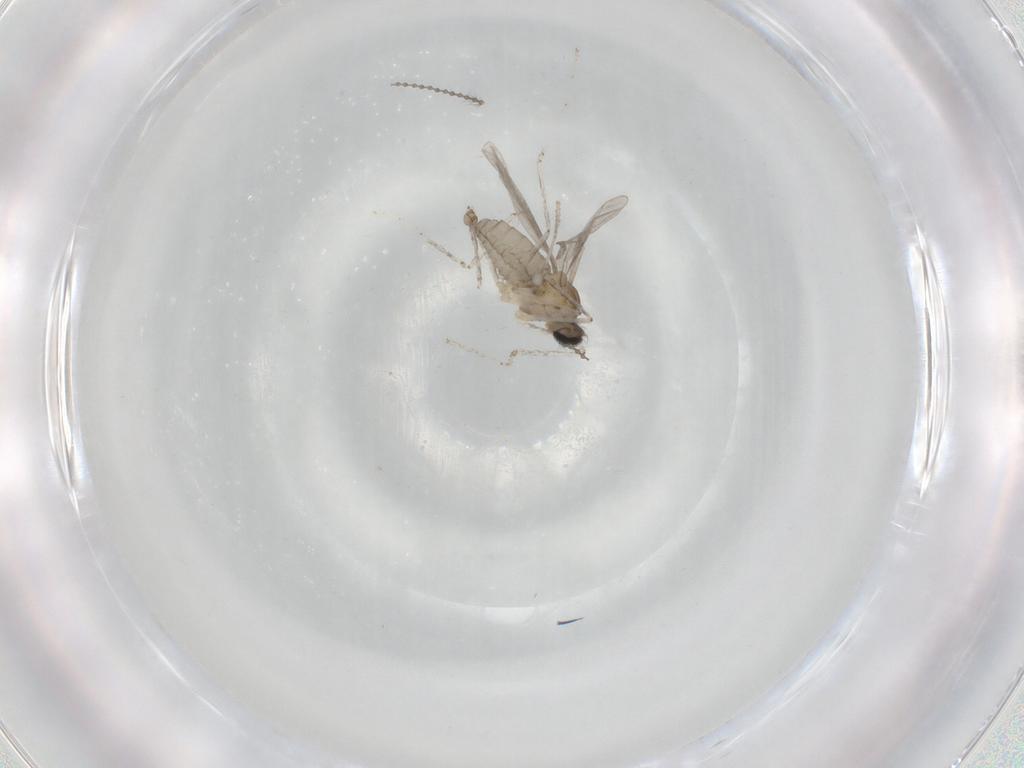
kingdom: Animalia
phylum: Arthropoda
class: Insecta
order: Diptera
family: Cecidomyiidae
